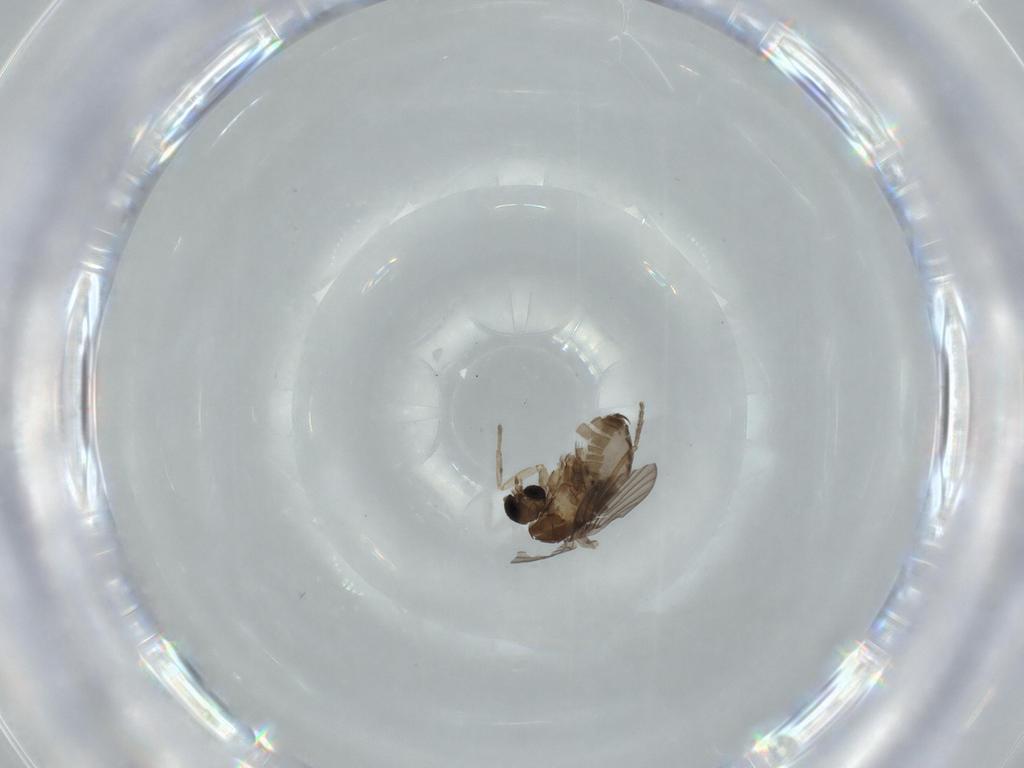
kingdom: Animalia
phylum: Arthropoda
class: Insecta
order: Diptera
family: Psychodidae
